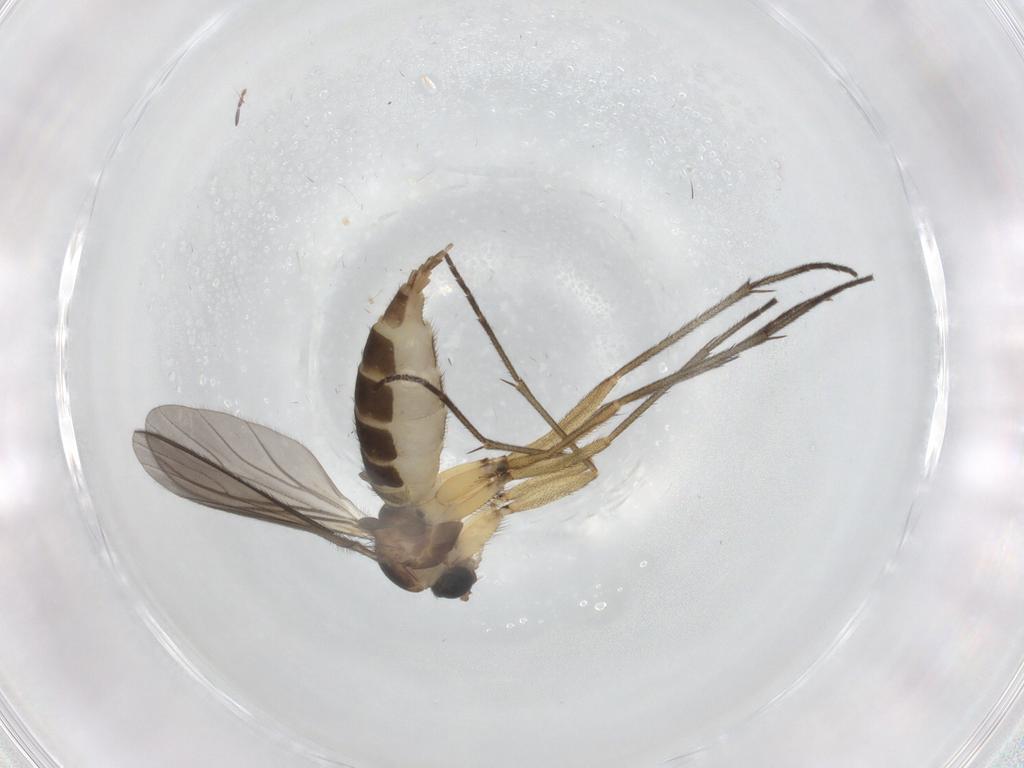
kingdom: Animalia
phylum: Arthropoda
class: Insecta
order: Diptera
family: Sciaridae
